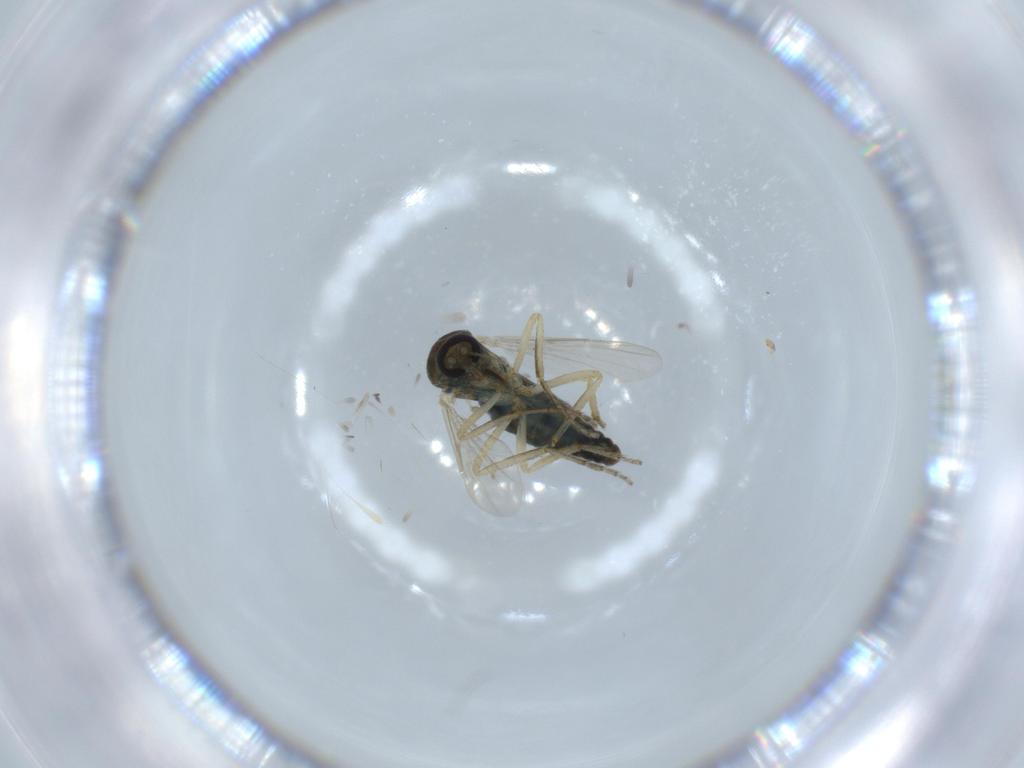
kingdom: Animalia
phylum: Arthropoda
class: Insecta
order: Diptera
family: Ceratopogonidae
